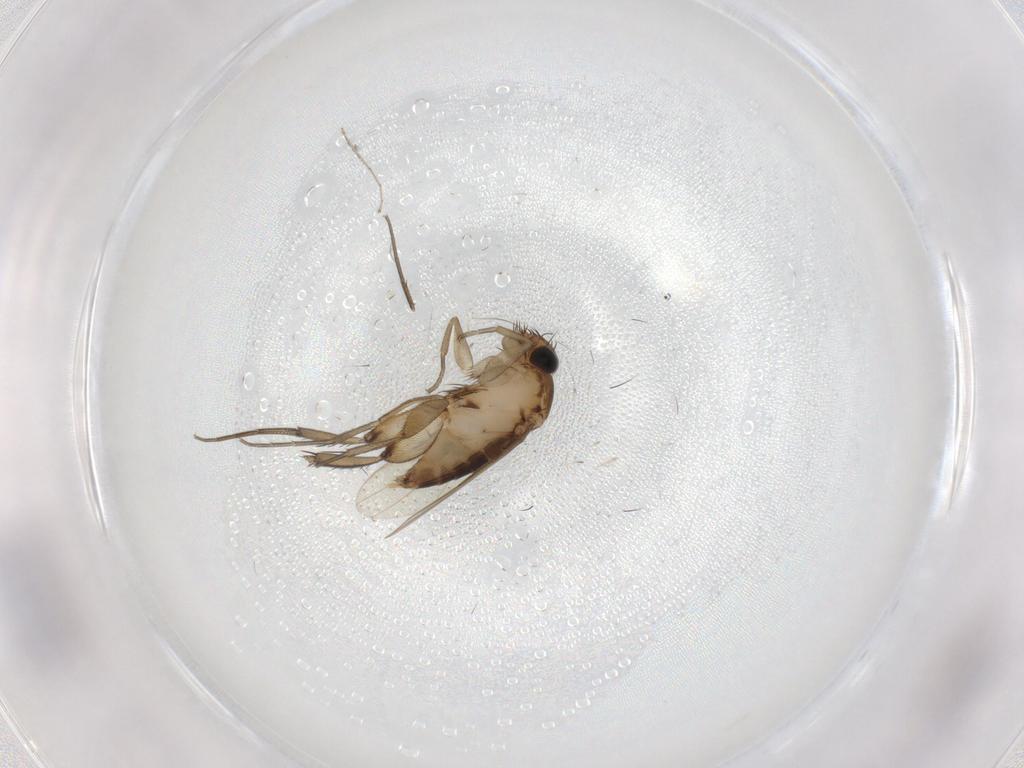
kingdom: Animalia
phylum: Arthropoda
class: Insecta
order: Diptera
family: Phoridae
